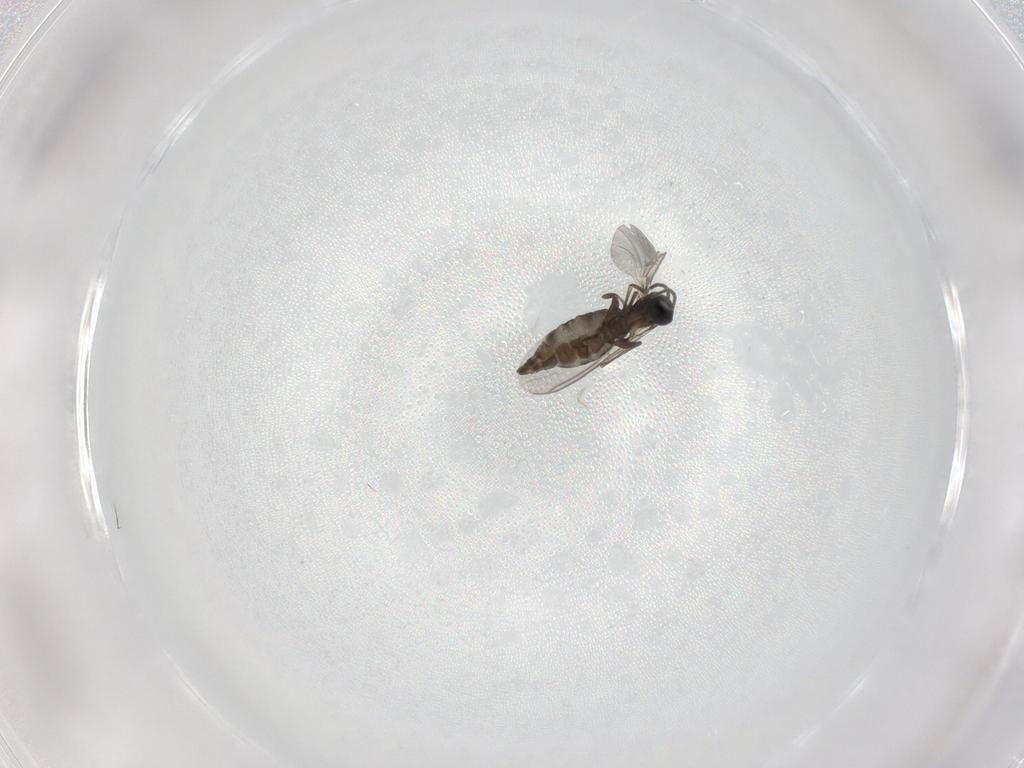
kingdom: Animalia
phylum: Arthropoda
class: Insecta
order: Diptera
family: Sciaridae
